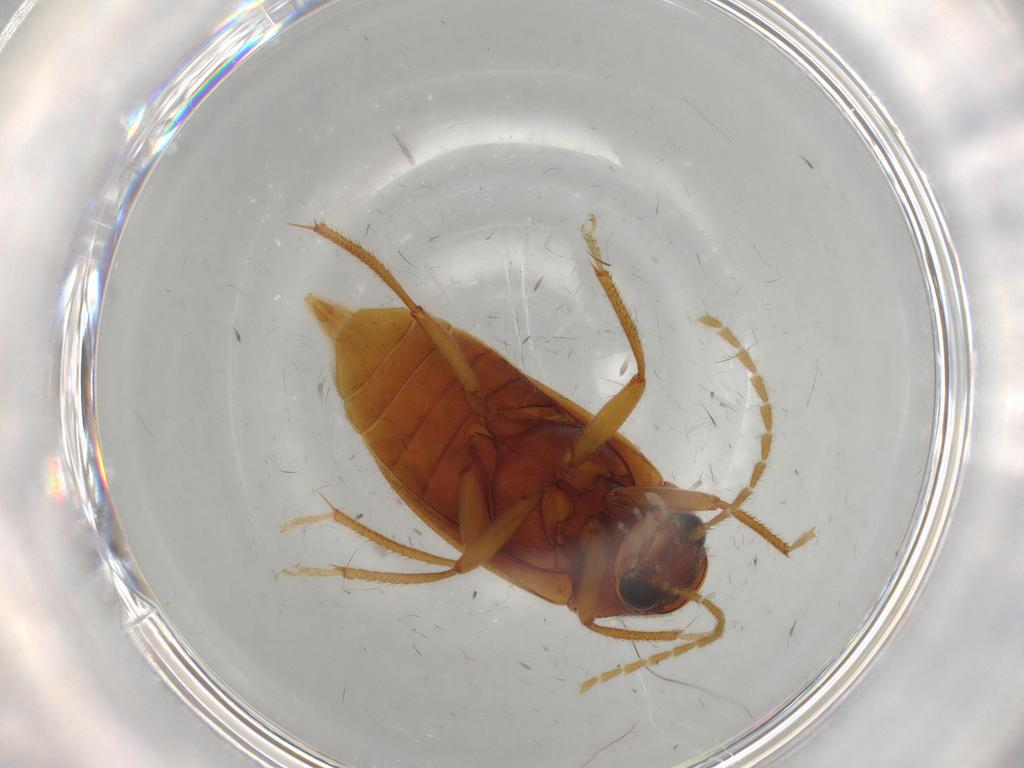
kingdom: Animalia
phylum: Arthropoda
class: Insecta
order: Coleoptera
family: Ptilodactylidae
